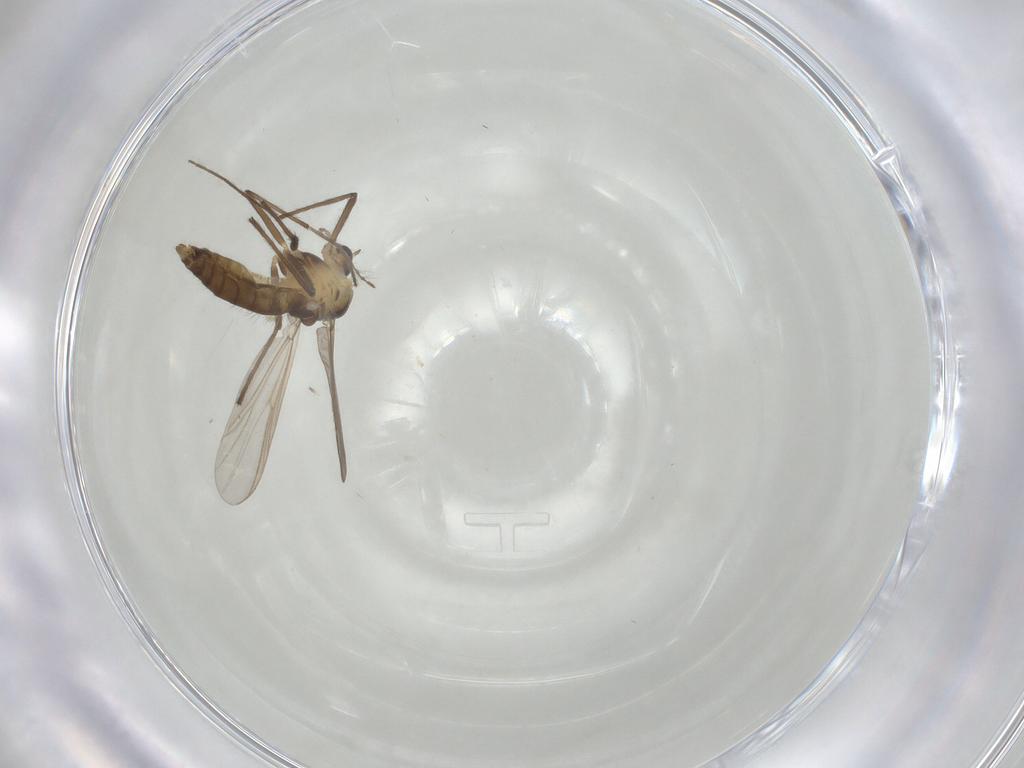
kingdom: Animalia
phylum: Arthropoda
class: Insecta
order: Diptera
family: Chironomidae
